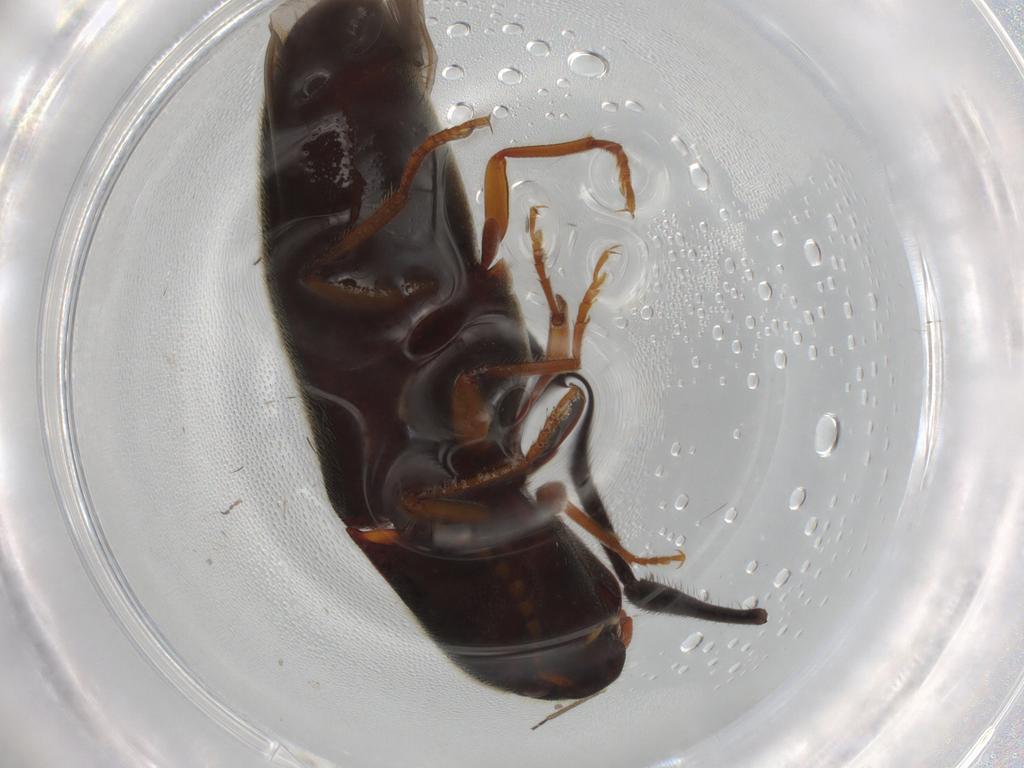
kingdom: Animalia
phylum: Arthropoda
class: Insecta
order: Coleoptera
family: Elateridae
